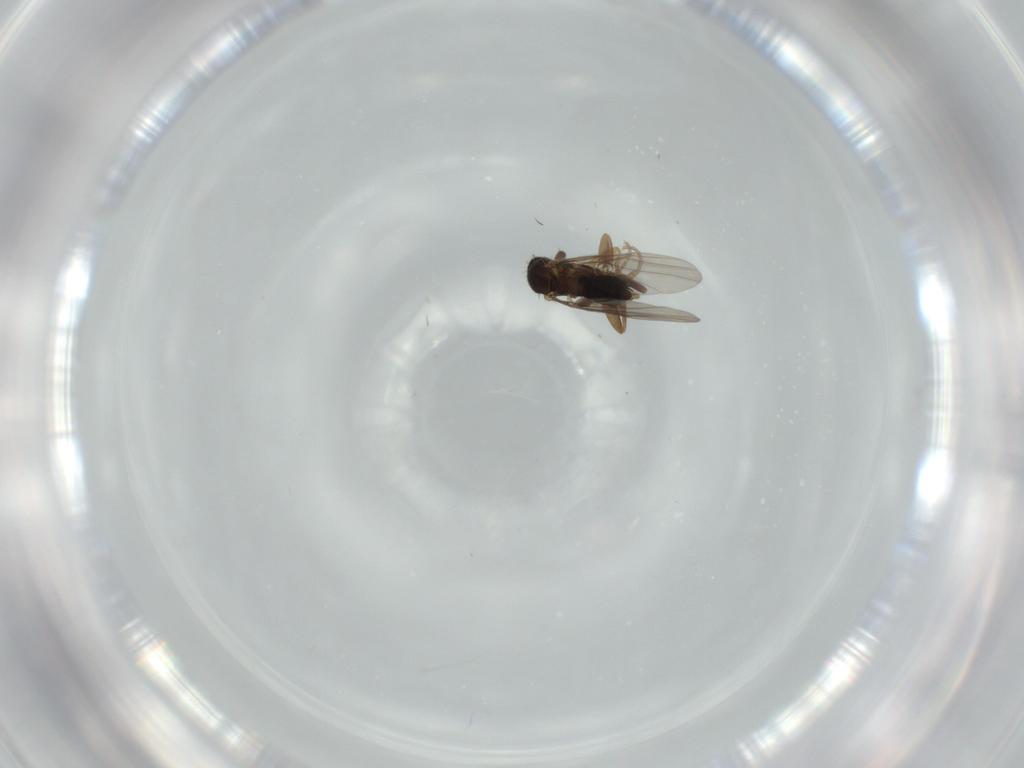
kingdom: Animalia
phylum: Arthropoda
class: Insecta
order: Diptera
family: Phoridae
